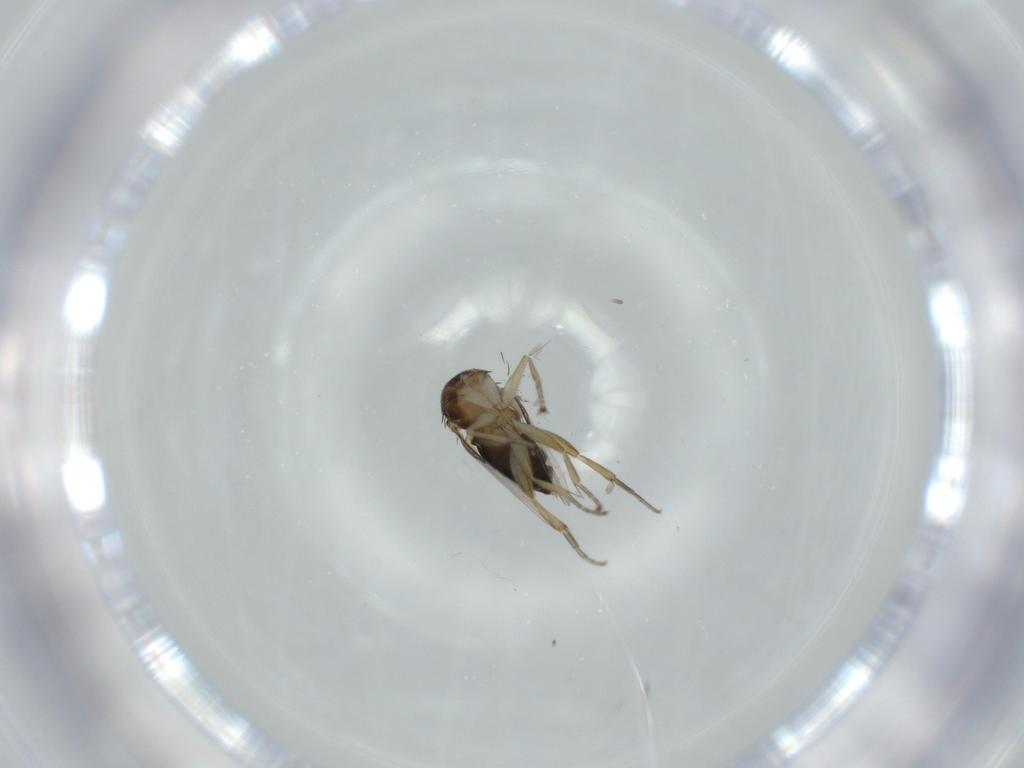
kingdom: Animalia
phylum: Arthropoda
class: Insecta
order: Diptera
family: Phoridae
